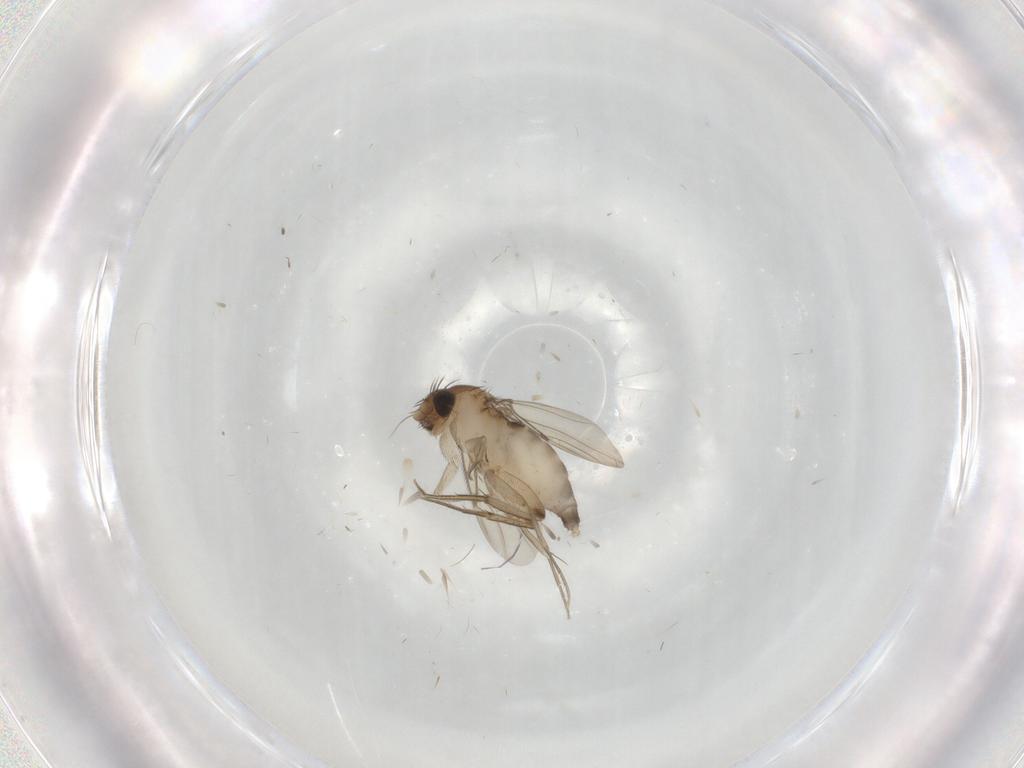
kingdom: Animalia
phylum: Arthropoda
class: Insecta
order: Diptera
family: Phoridae
